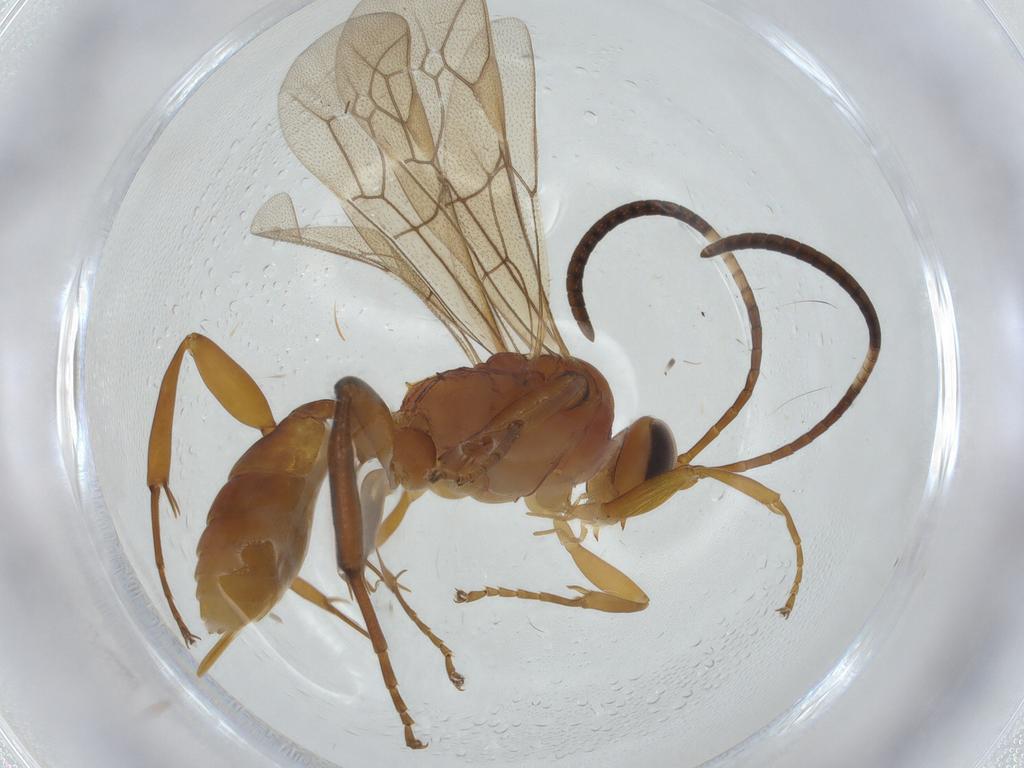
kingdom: Animalia
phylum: Arthropoda
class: Insecta
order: Hymenoptera
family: Ichneumonidae
